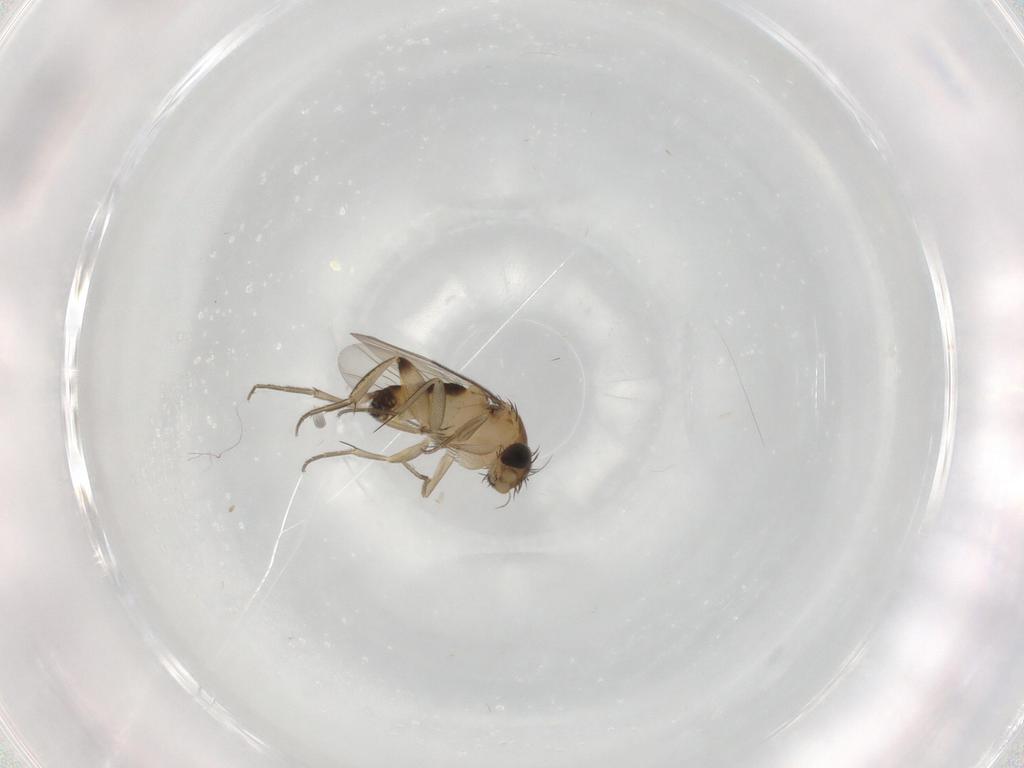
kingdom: Animalia
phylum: Arthropoda
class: Insecta
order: Diptera
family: Phoridae
